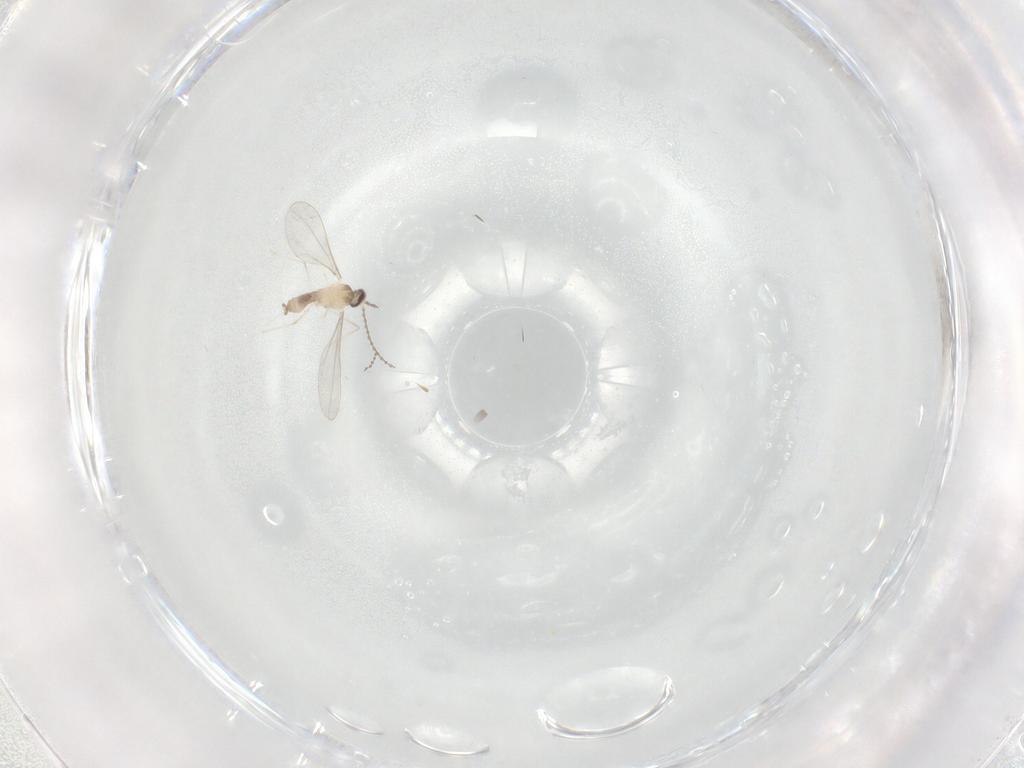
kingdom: Animalia
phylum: Arthropoda
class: Insecta
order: Diptera
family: Cecidomyiidae
